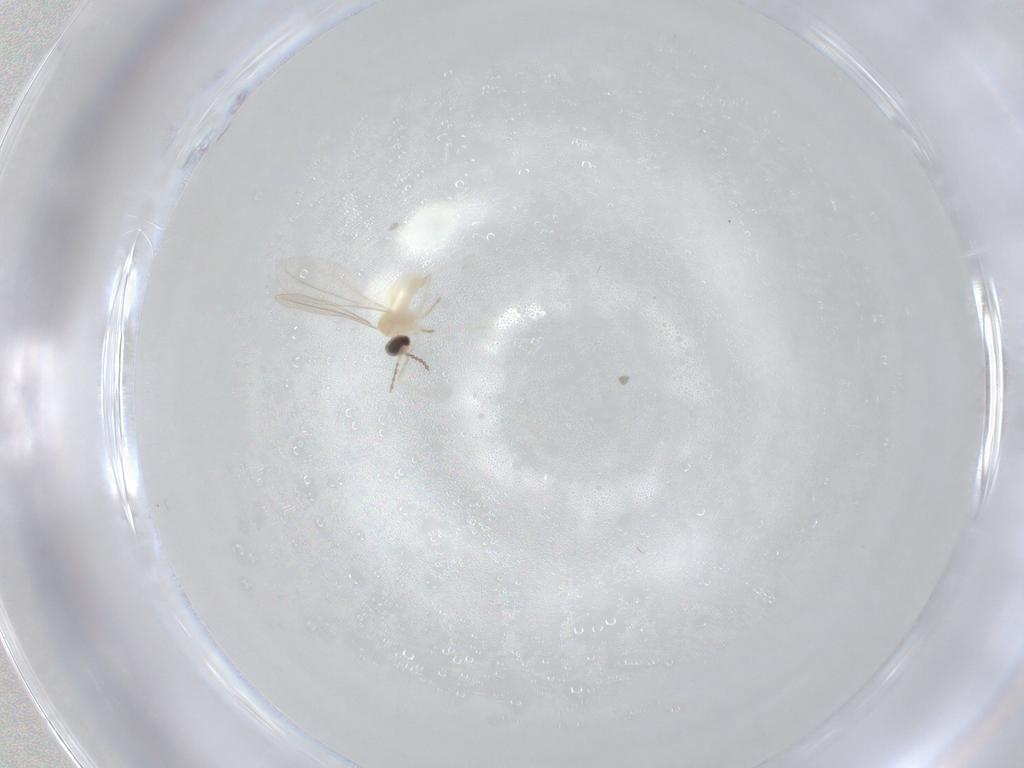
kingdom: Animalia
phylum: Arthropoda
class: Insecta
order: Diptera
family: Cecidomyiidae
